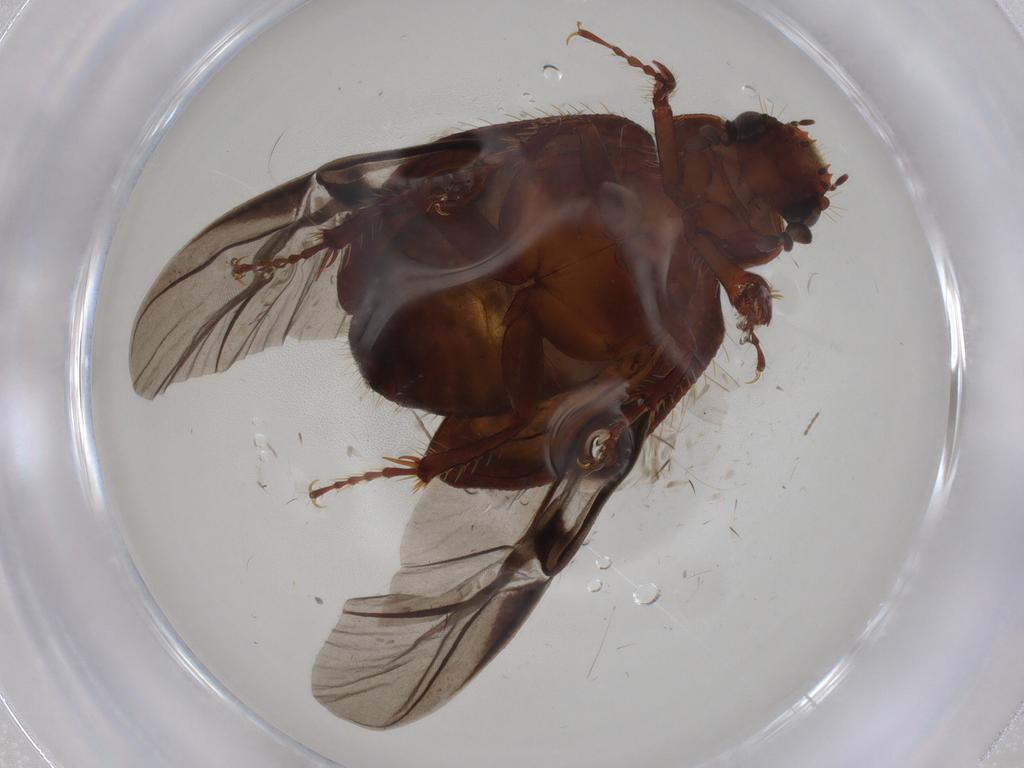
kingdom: Animalia
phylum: Arthropoda
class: Insecta
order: Coleoptera
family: Hybosoridae
